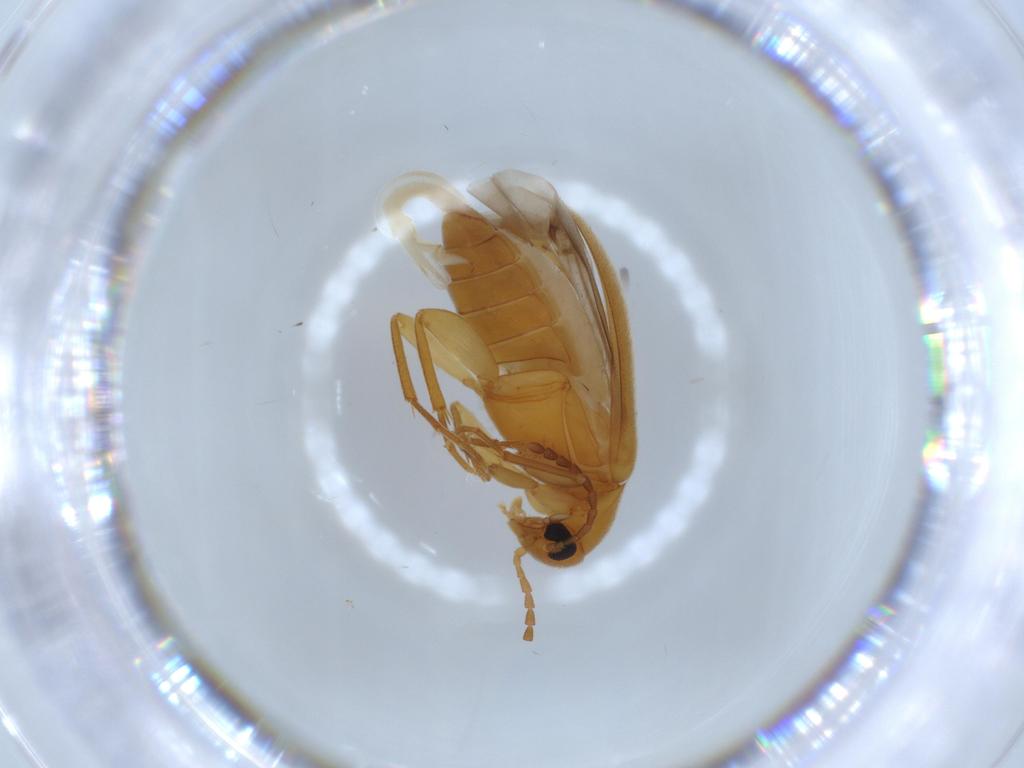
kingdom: Animalia
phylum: Arthropoda
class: Insecta
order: Coleoptera
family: Scraptiidae
